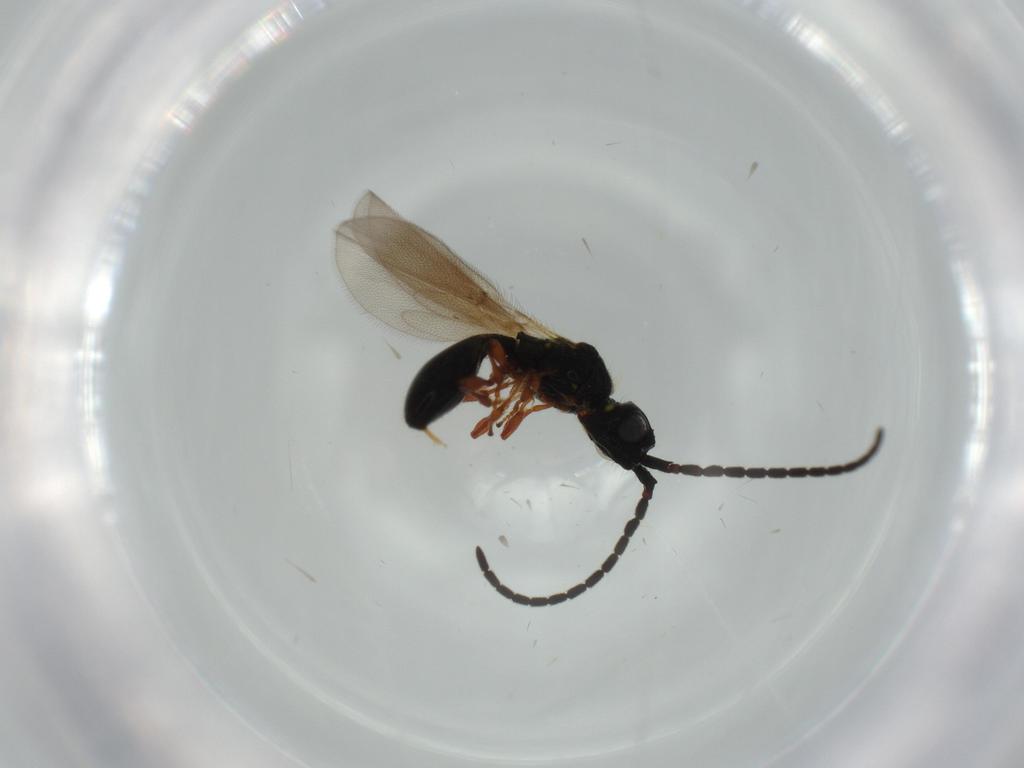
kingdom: Animalia
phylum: Arthropoda
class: Insecta
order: Hymenoptera
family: Diapriidae
